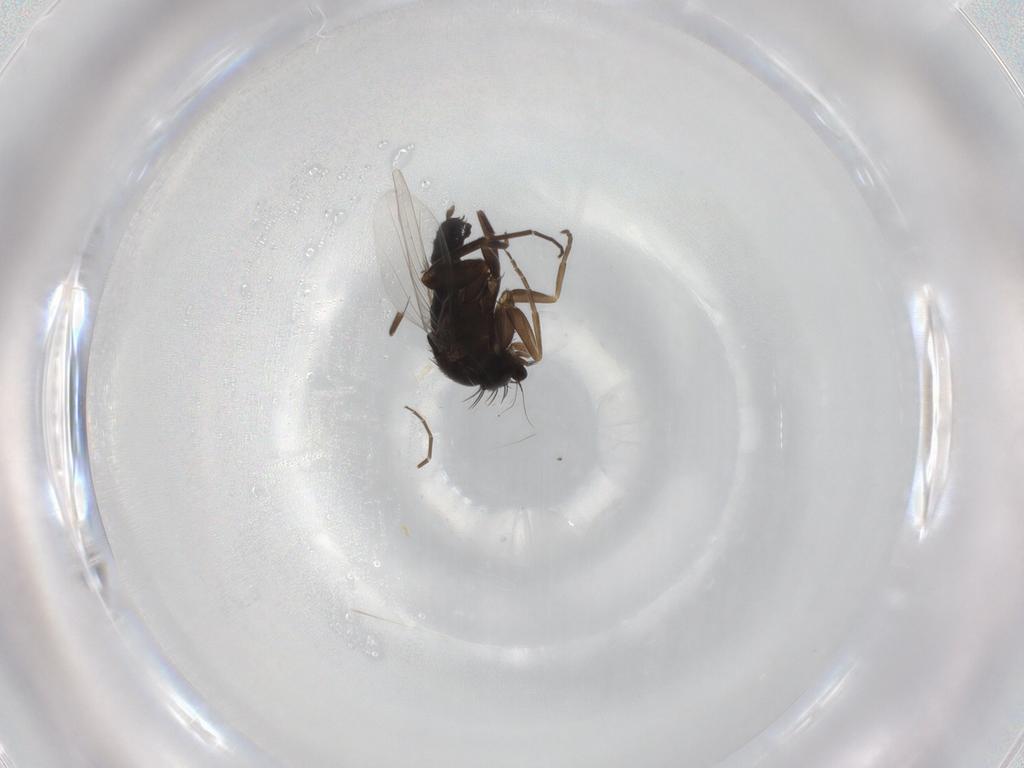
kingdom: Animalia
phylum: Arthropoda
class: Insecta
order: Diptera
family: Phoridae
